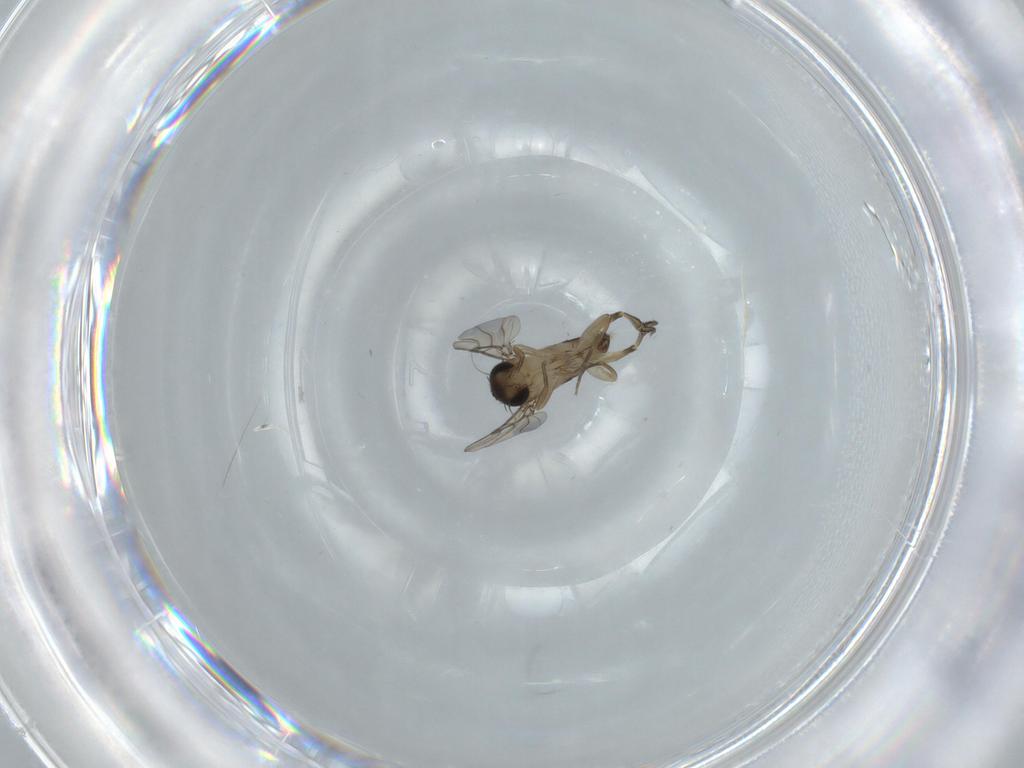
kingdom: Animalia
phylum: Arthropoda
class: Insecta
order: Diptera
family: Phoridae
